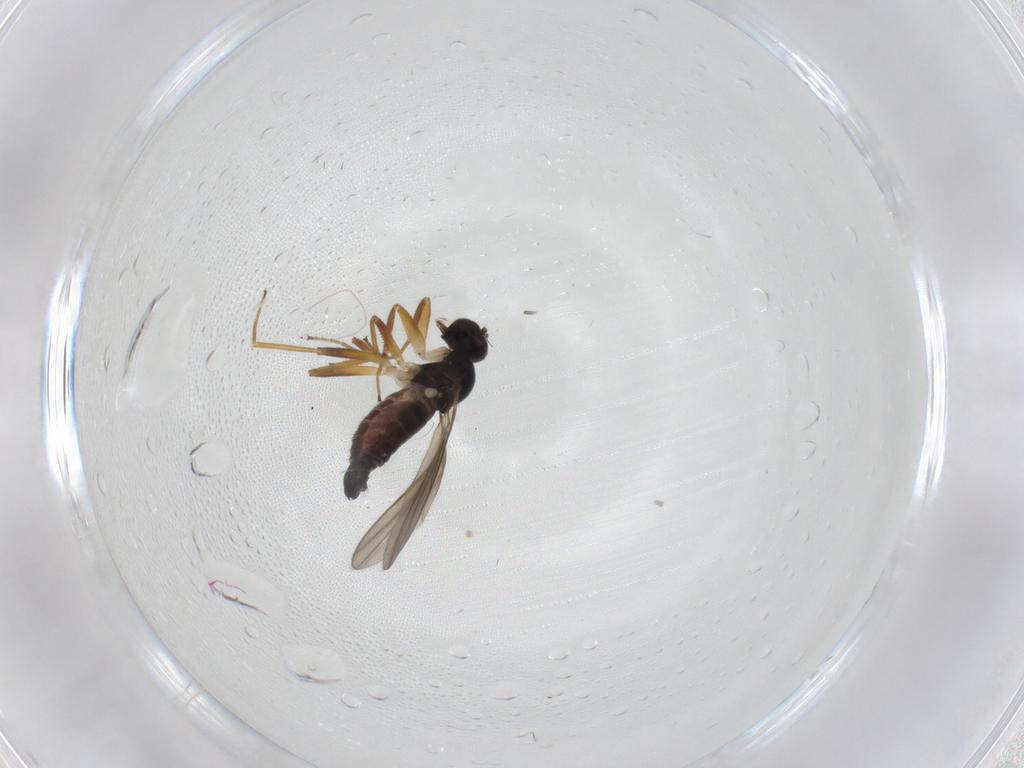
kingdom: Animalia
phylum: Arthropoda
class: Insecta
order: Diptera
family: Hybotidae
